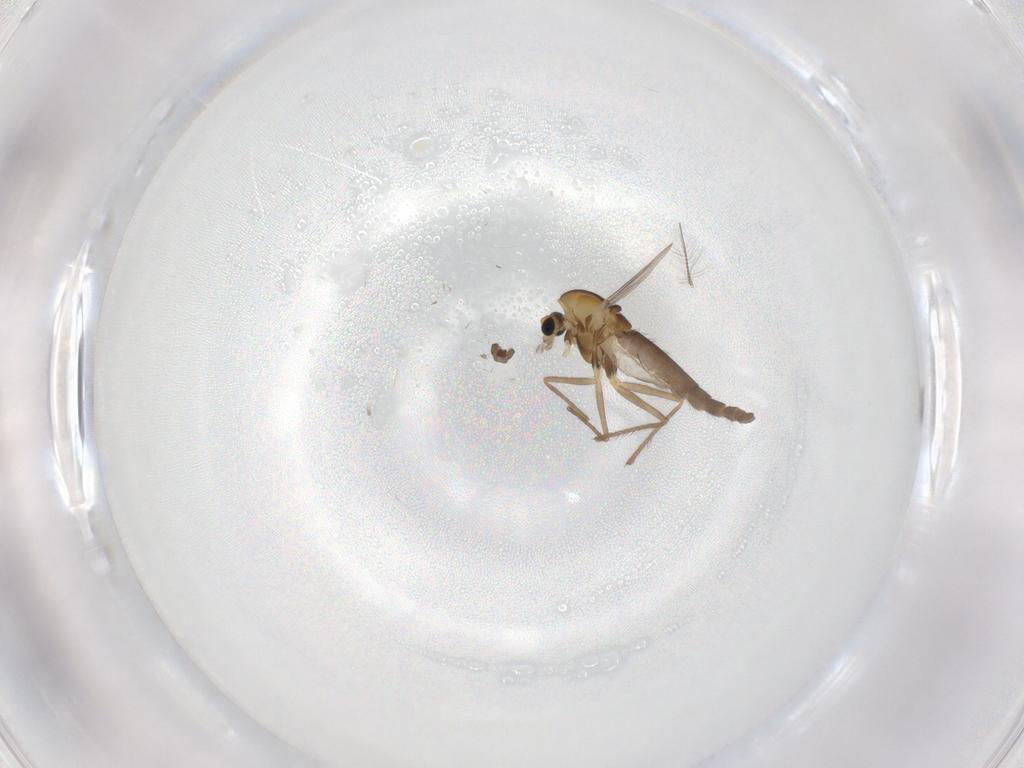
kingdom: Animalia
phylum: Arthropoda
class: Insecta
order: Diptera
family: Chironomidae
